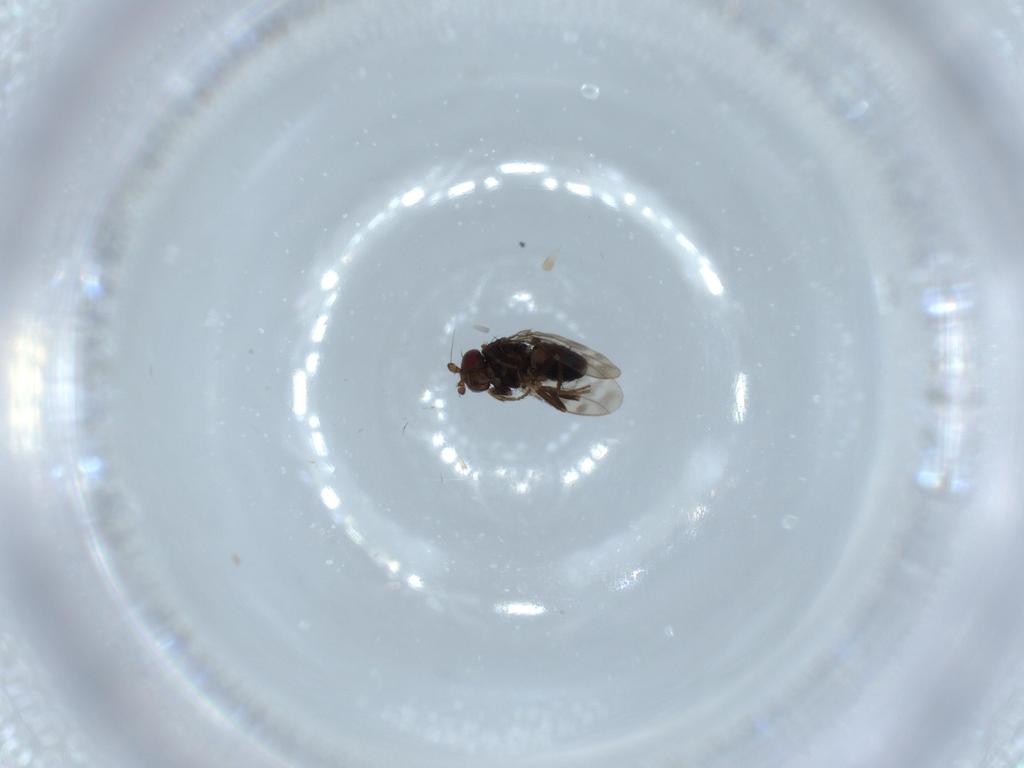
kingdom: Animalia
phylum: Arthropoda
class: Insecta
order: Diptera
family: Sphaeroceridae
